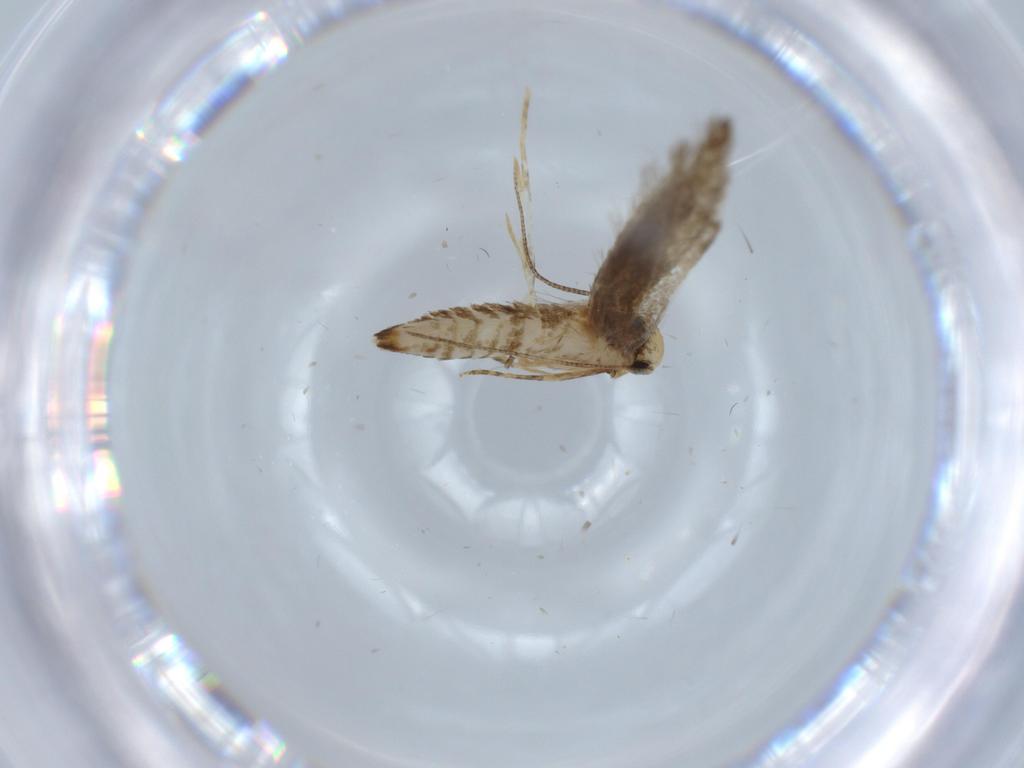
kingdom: Animalia
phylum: Arthropoda
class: Insecta
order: Lepidoptera
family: Tineidae
